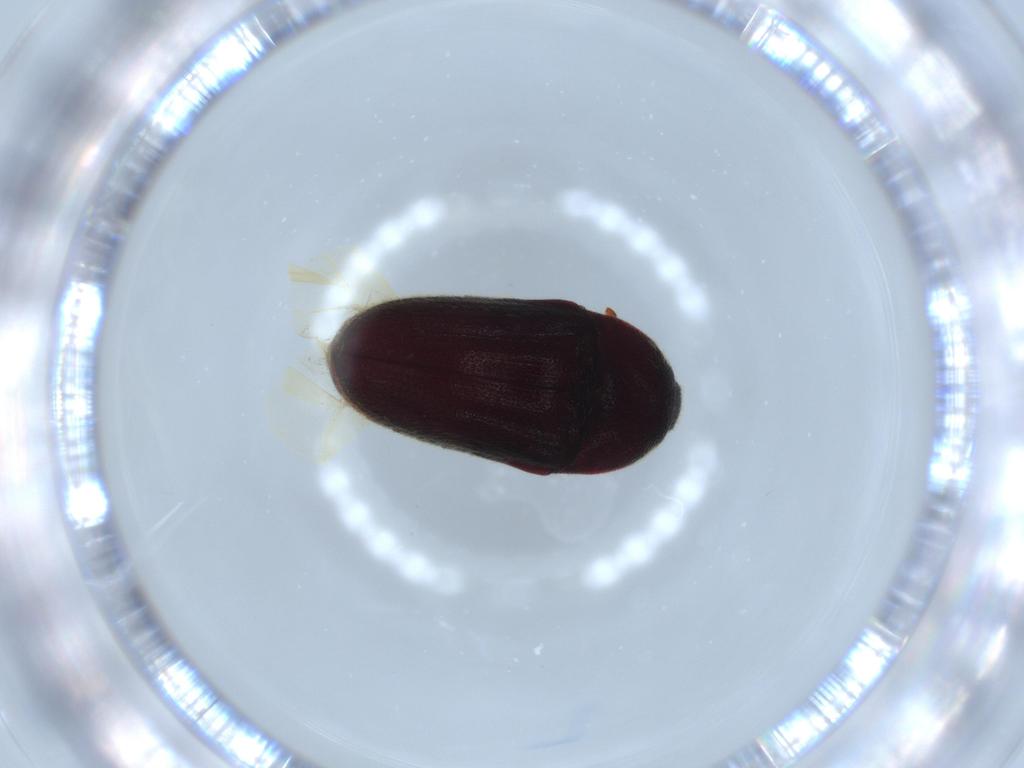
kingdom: Animalia
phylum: Arthropoda
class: Insecta
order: Coleoptera
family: Throscidae
